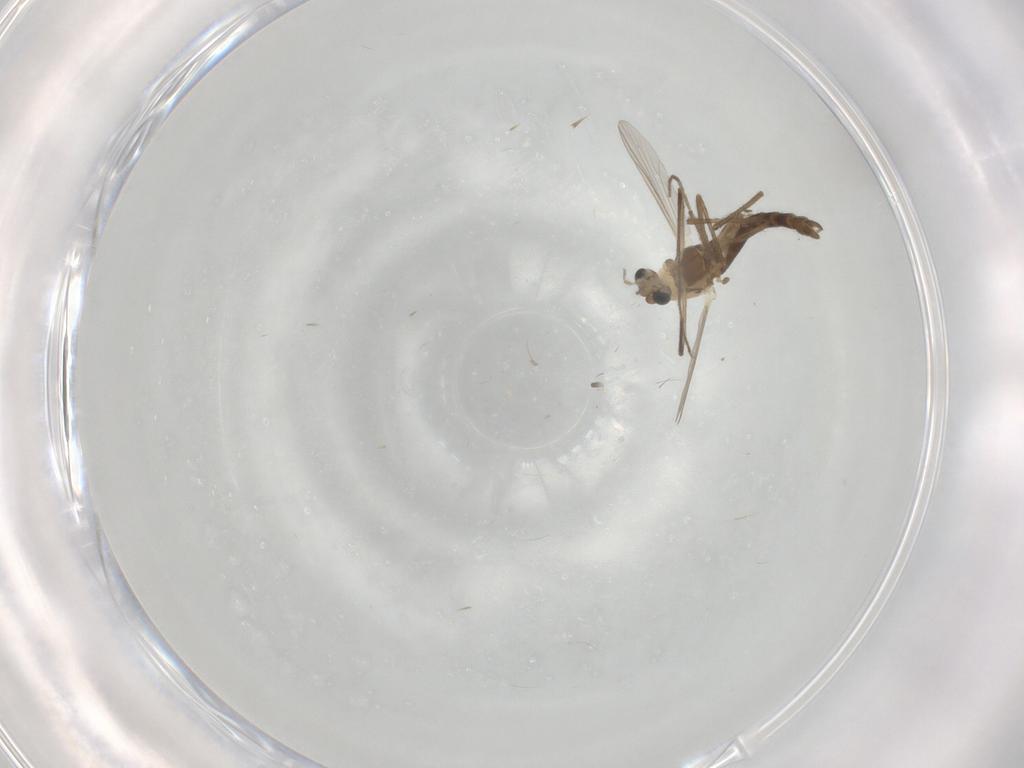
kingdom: Animalia
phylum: Arthropoda
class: Insecta
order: Diptera
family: Chironomidae
